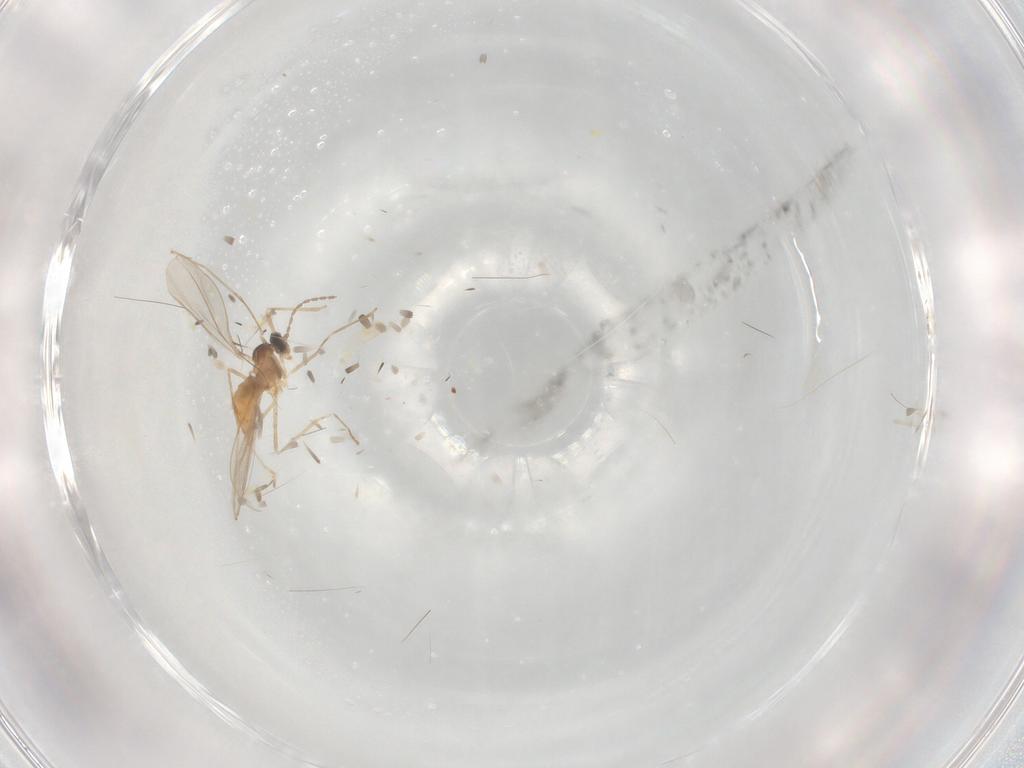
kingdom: Animalia
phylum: Arthropoda
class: Insecta
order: Diptera
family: Cecidomyiidae
